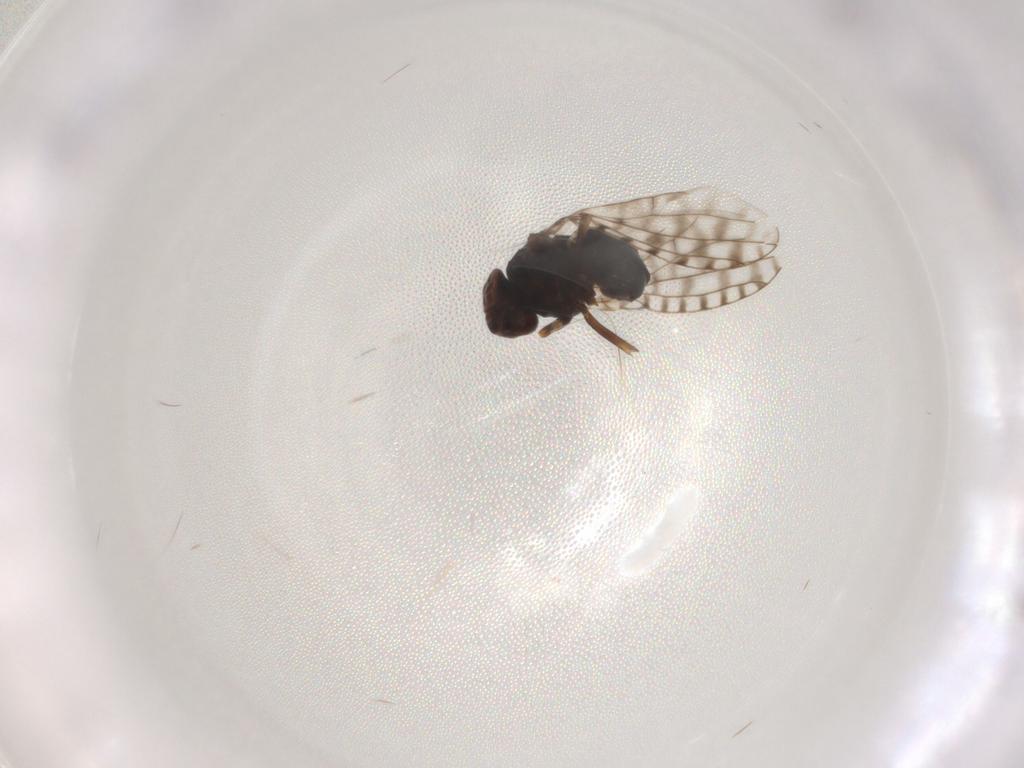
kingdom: Animalia
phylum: Arthropoda
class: Insecta
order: Diptera
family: Ephydridae
